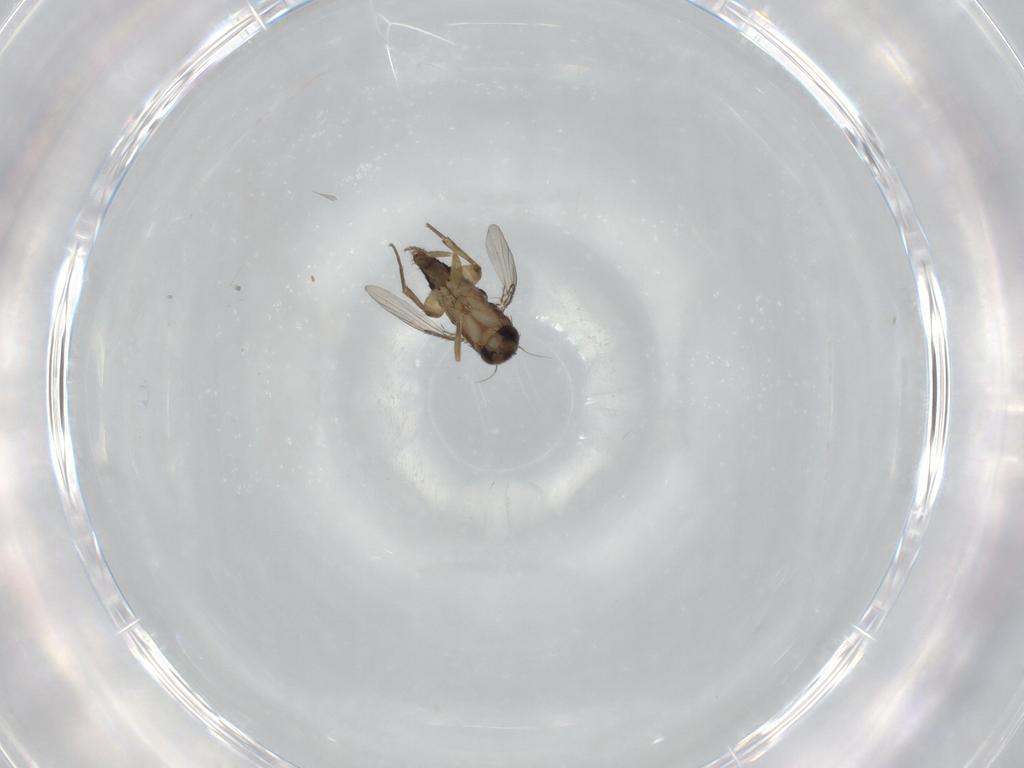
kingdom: Animalia
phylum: Arthropoda
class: Insecta
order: Diptera
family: Phoridae
